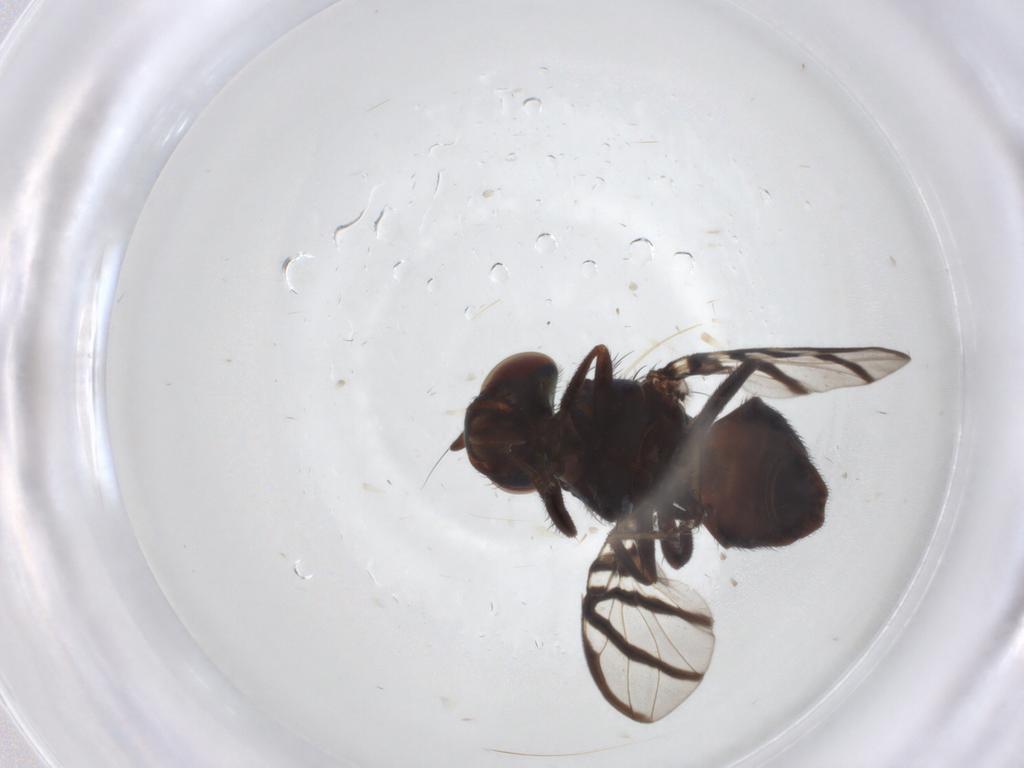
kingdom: Animalia
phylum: Arthropoda
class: Insecta
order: Diptera
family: Ulidiidae
